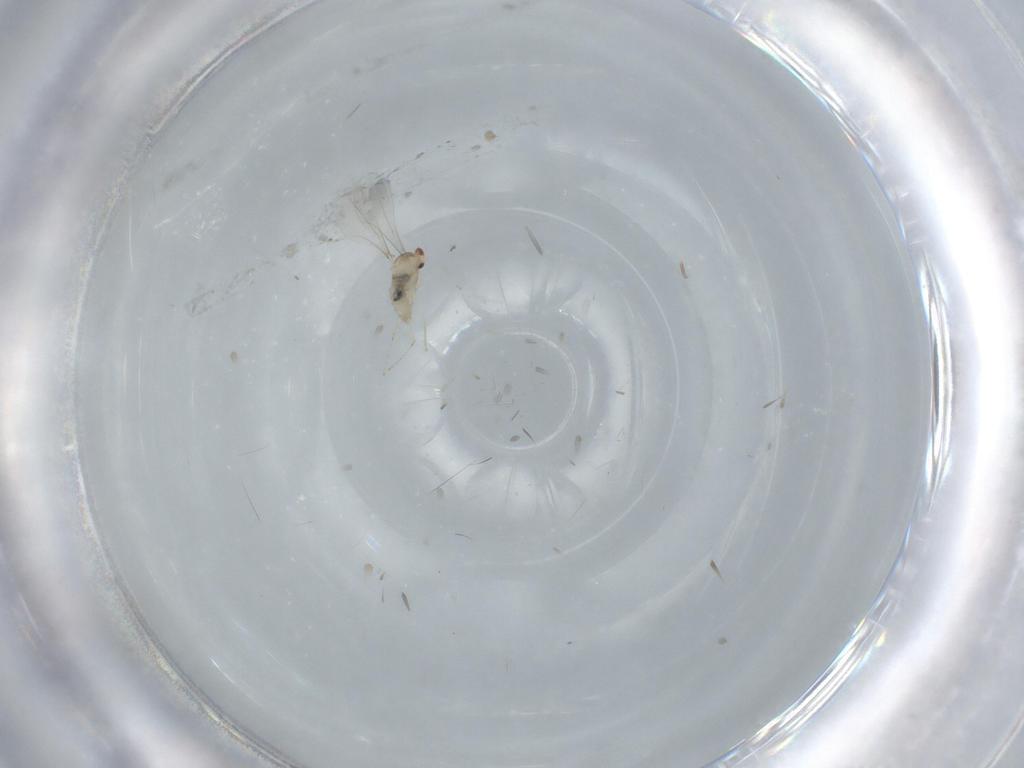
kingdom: Animalia
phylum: Arthropoda
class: Insecta
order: Diptera
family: Cecidomyiidae
